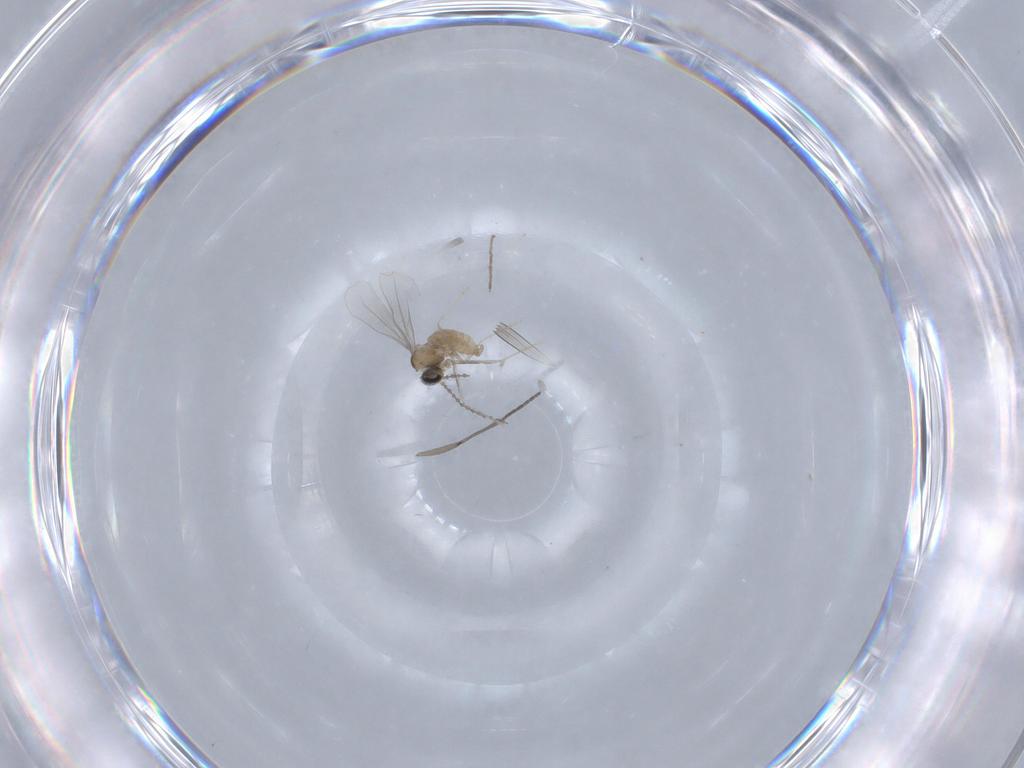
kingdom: Animalia
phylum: Arthropoda
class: Insecta
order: Diptera
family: Cecidomyiidae
